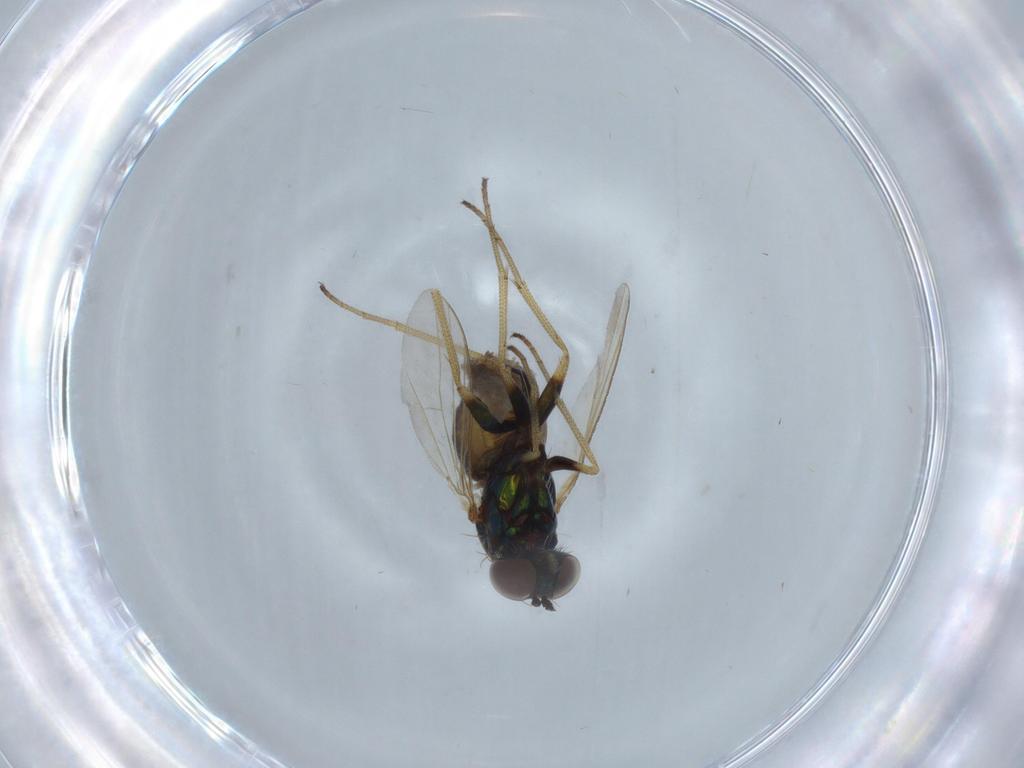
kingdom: Animalia
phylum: Arthropoda
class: Insecta
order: Diptera
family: Dolichopodidae
